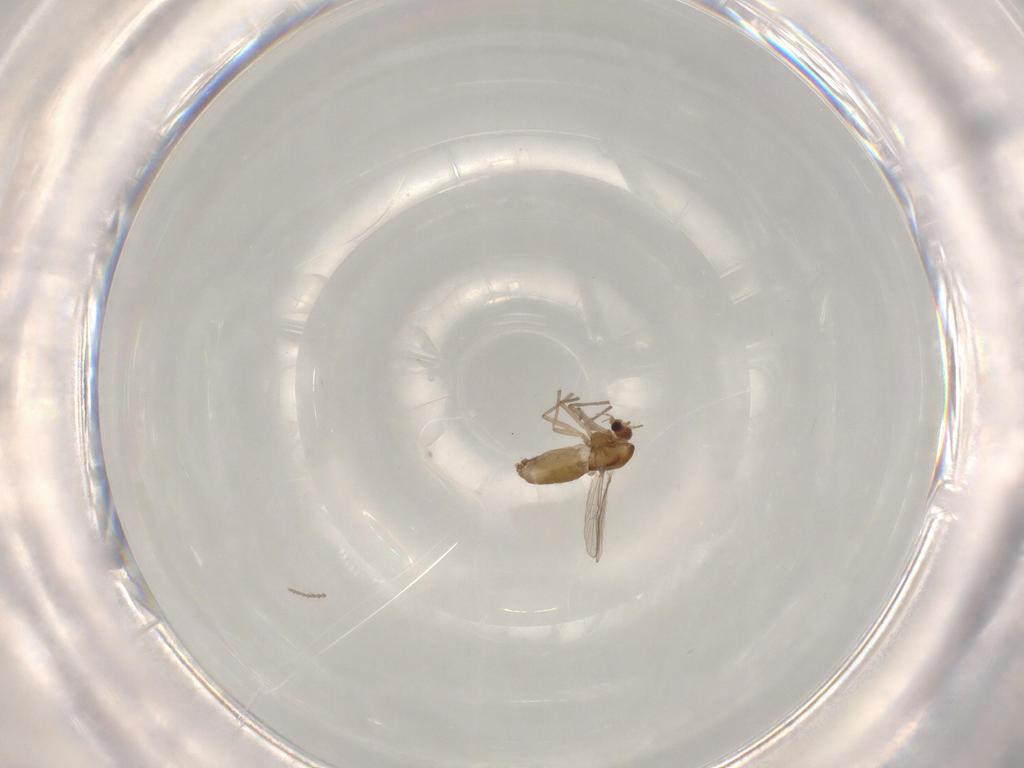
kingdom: Animalia
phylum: Arthropoda
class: Insecta
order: Diptera
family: Chironomidae
